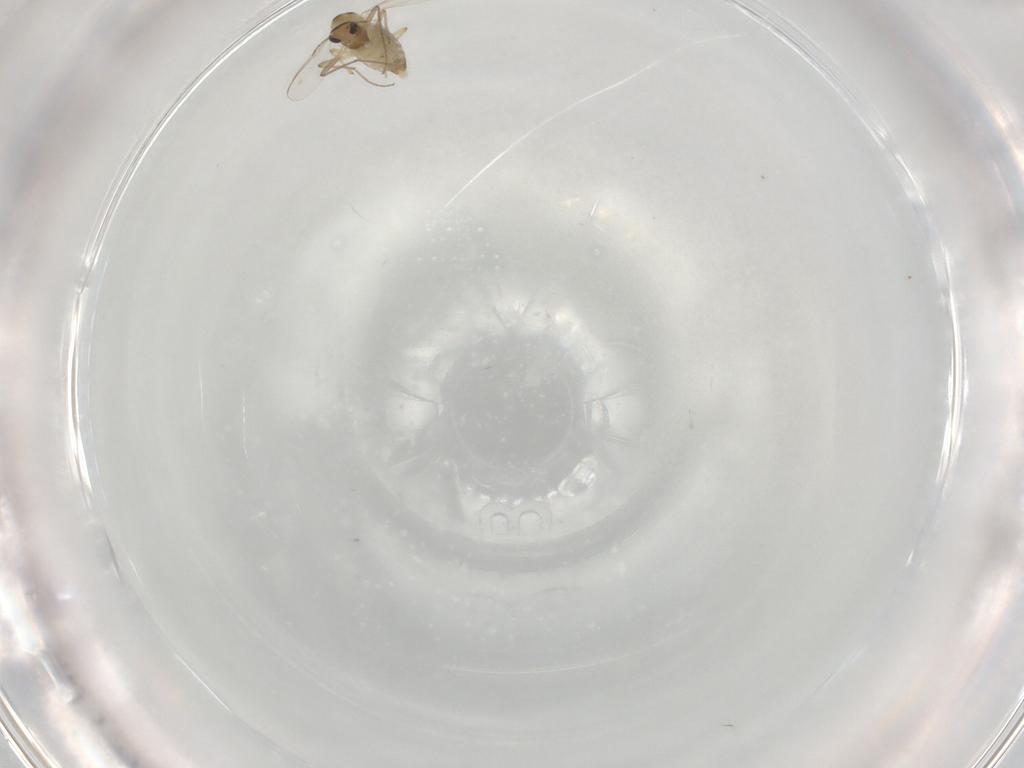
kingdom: Animalia
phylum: Arthropoda
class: Insecta
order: Diptera
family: Chironomidae
